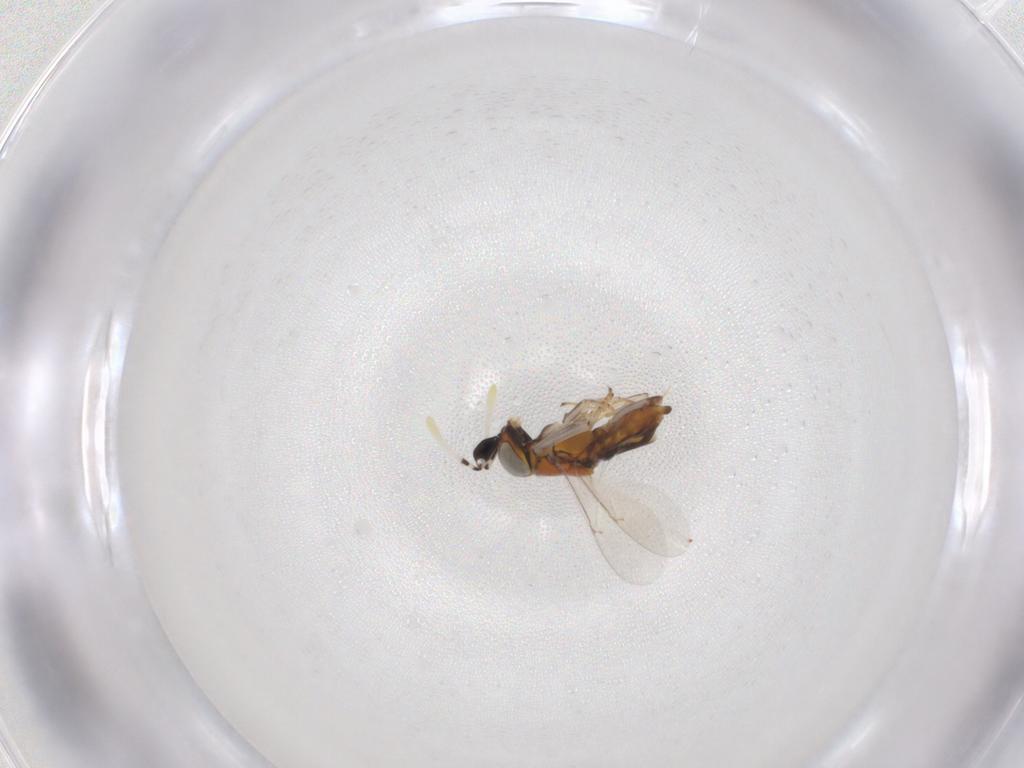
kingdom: Animalia
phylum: Arthropoda
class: Insecta
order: Hymenoptera
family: Encyrtidae
